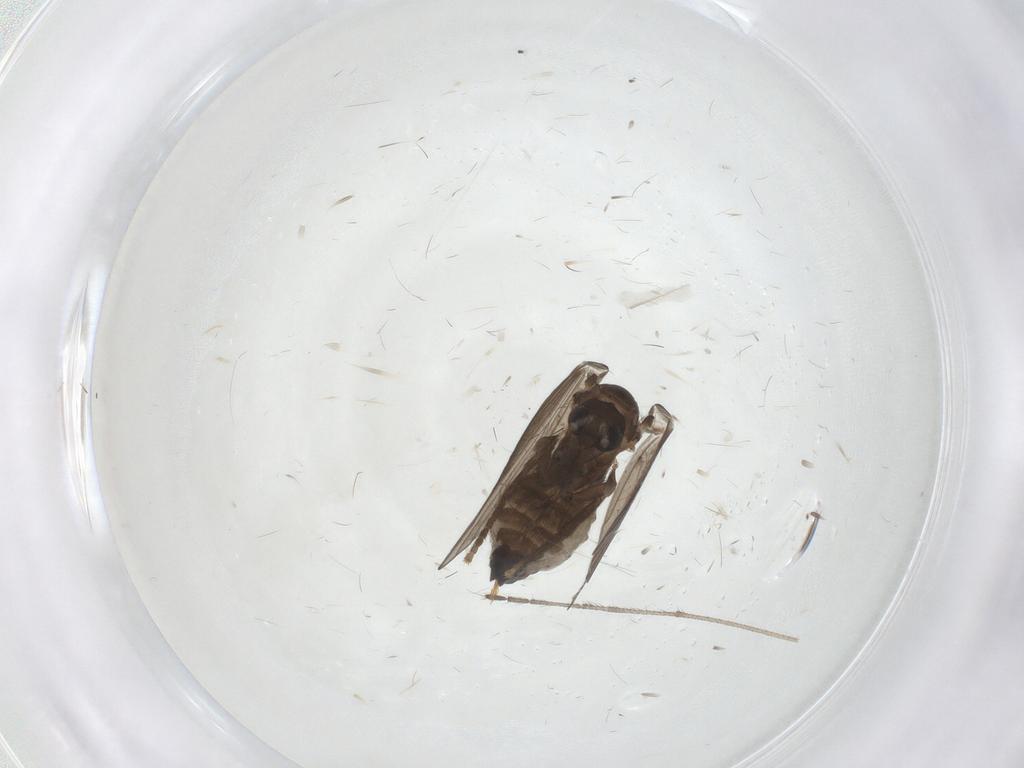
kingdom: Animalia
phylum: Arthropoda
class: Insecta
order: Diptera
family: Psychodidae
